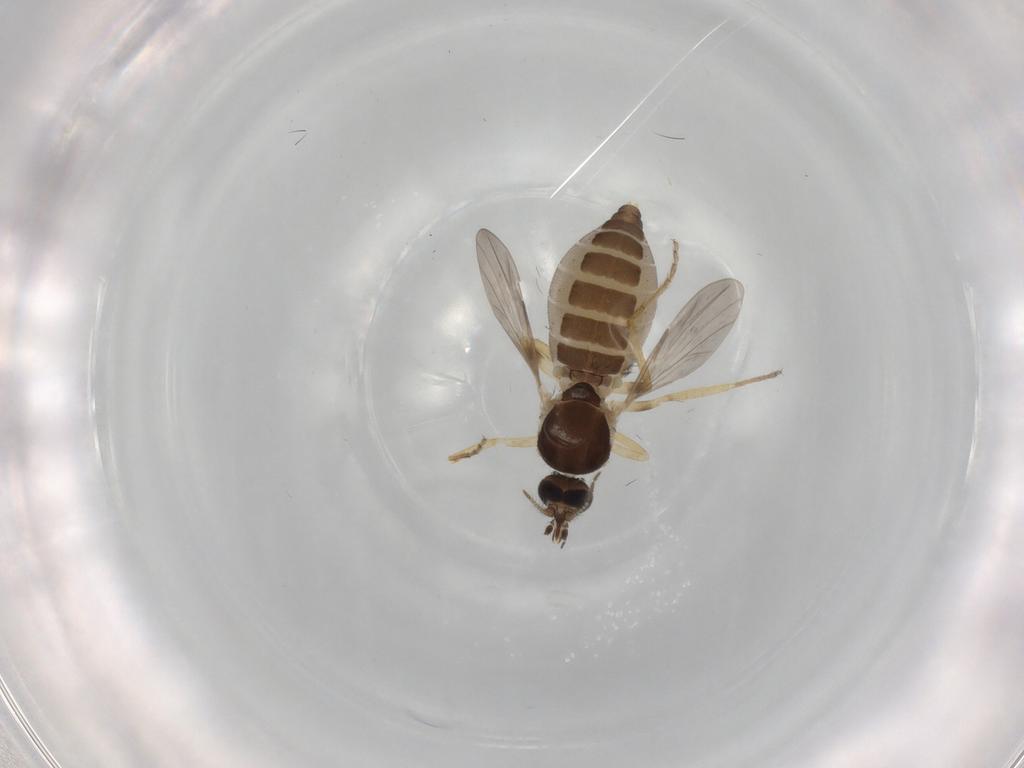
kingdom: Animalia
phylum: Arthropoda
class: Insecta
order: Diptera
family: Ceratopogonidae
